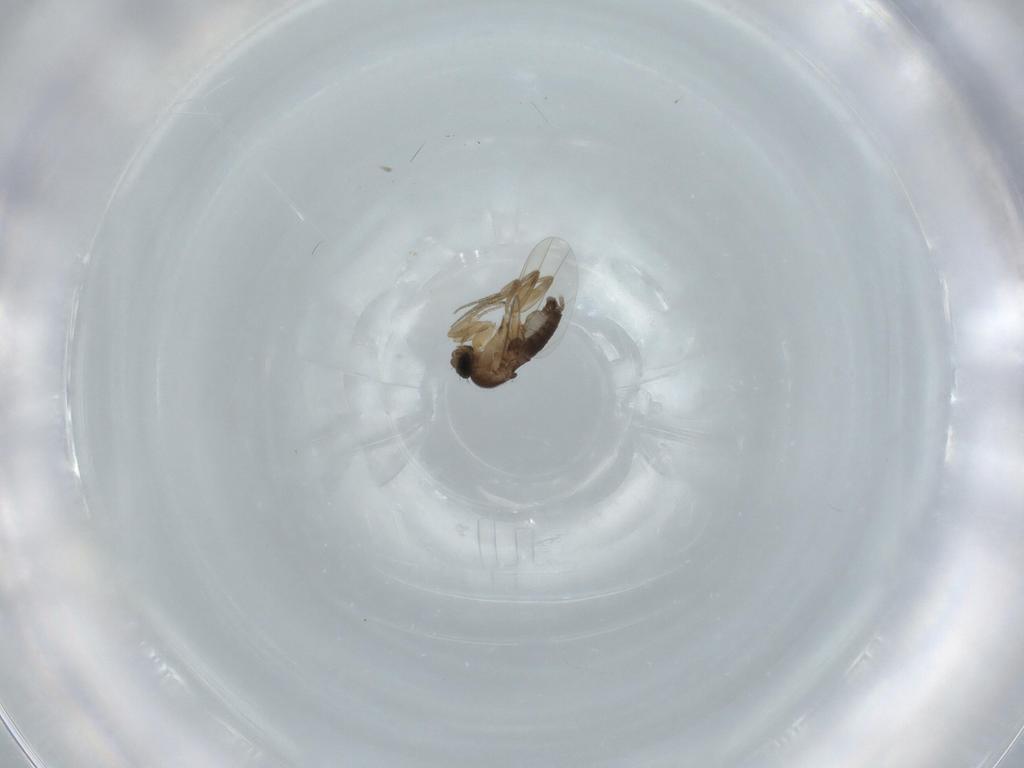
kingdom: Animalia
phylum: Arthropoda
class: Insecta
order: Diptera
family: Phoridae
